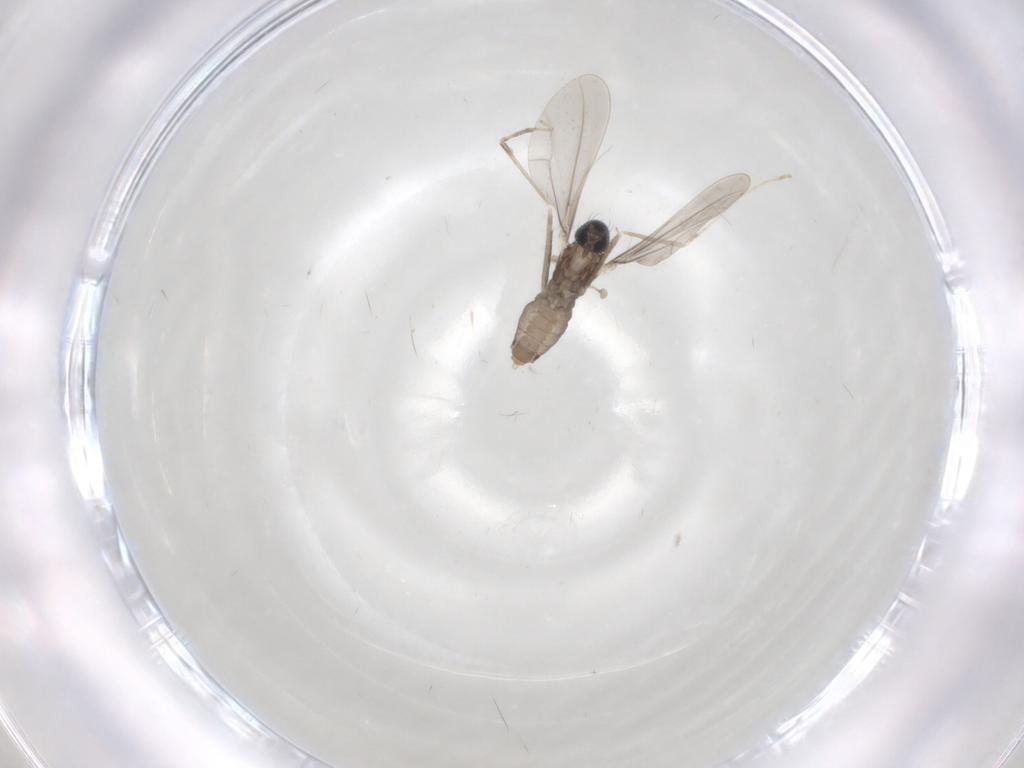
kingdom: Animalia
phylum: Arthropoda
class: Insecta
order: Diptera
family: Cecidomyiidae
